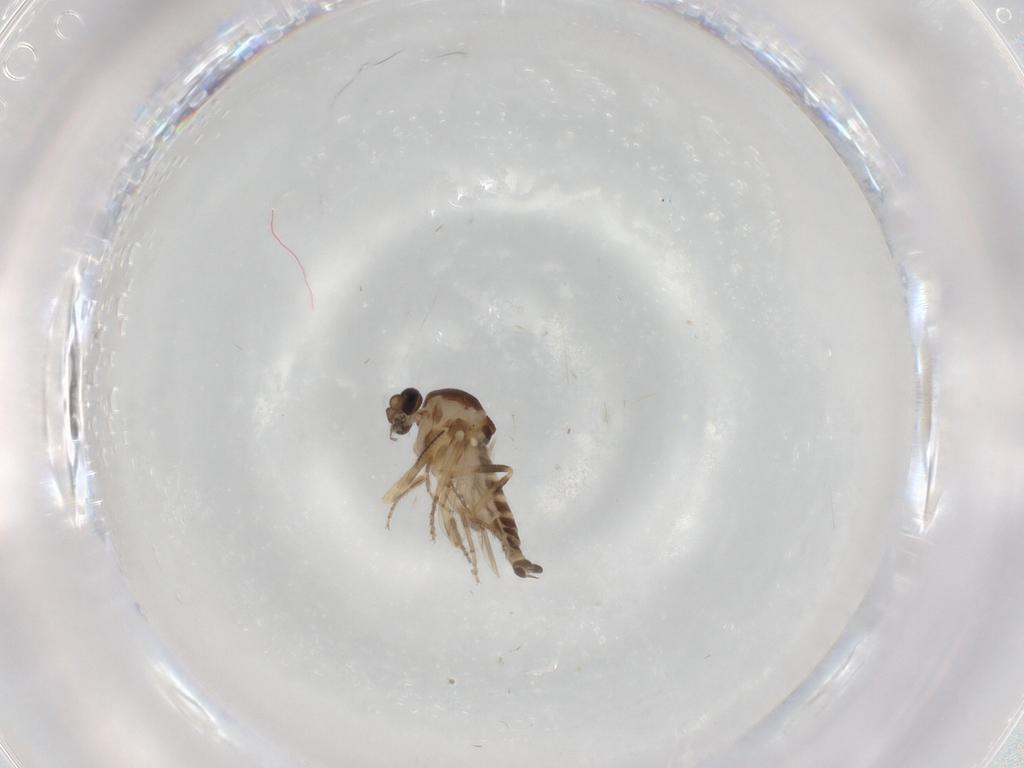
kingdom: Animalia
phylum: Arthropoda
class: Insecta
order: Diptera
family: Ceratopogonidae
